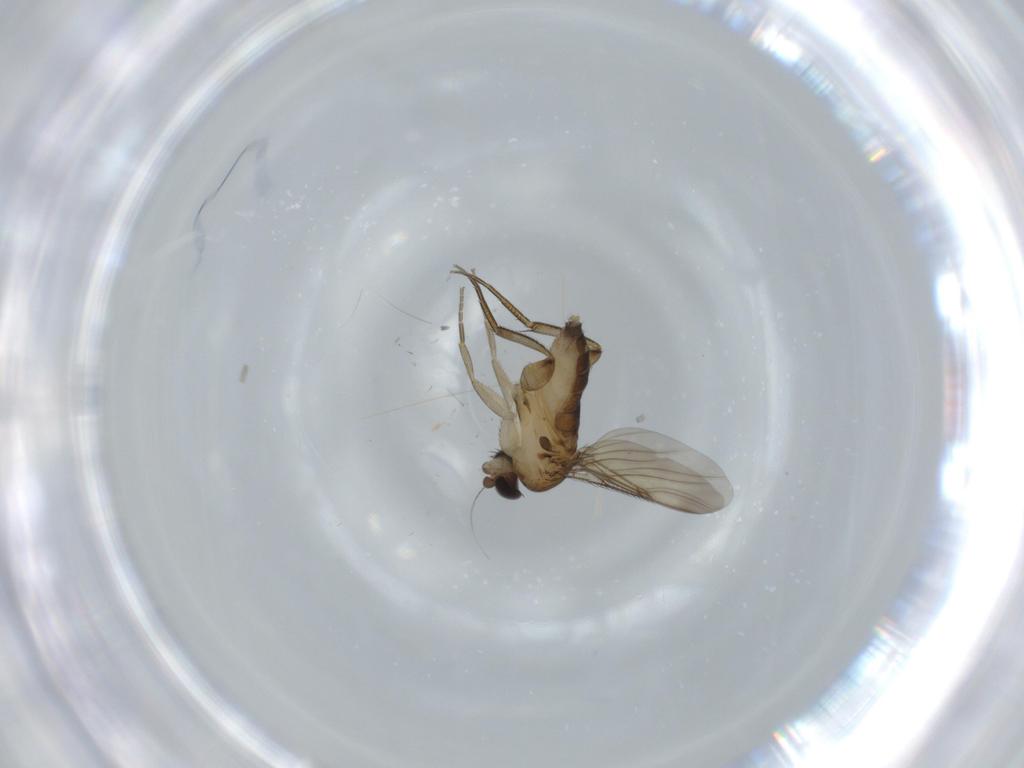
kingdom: Animalia
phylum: Arthropoda
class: Insecta
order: Diptera
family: Phoridae
